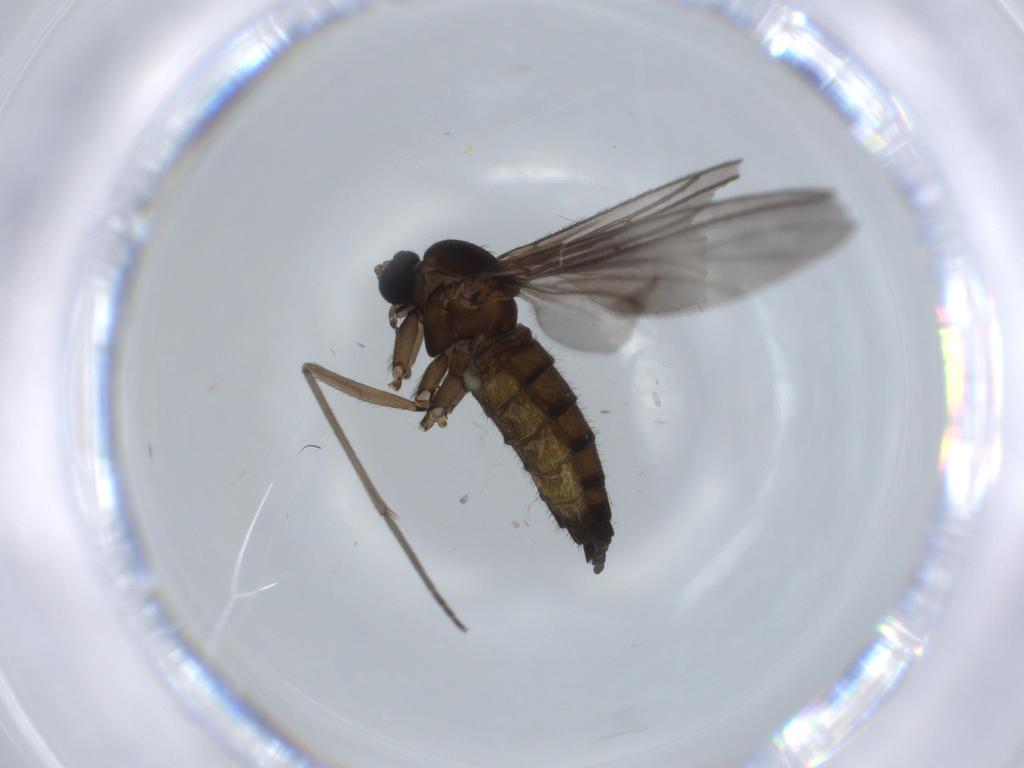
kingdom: Animalia
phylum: Arthropoda
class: Insecta
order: Diptera
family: Sciaridae
